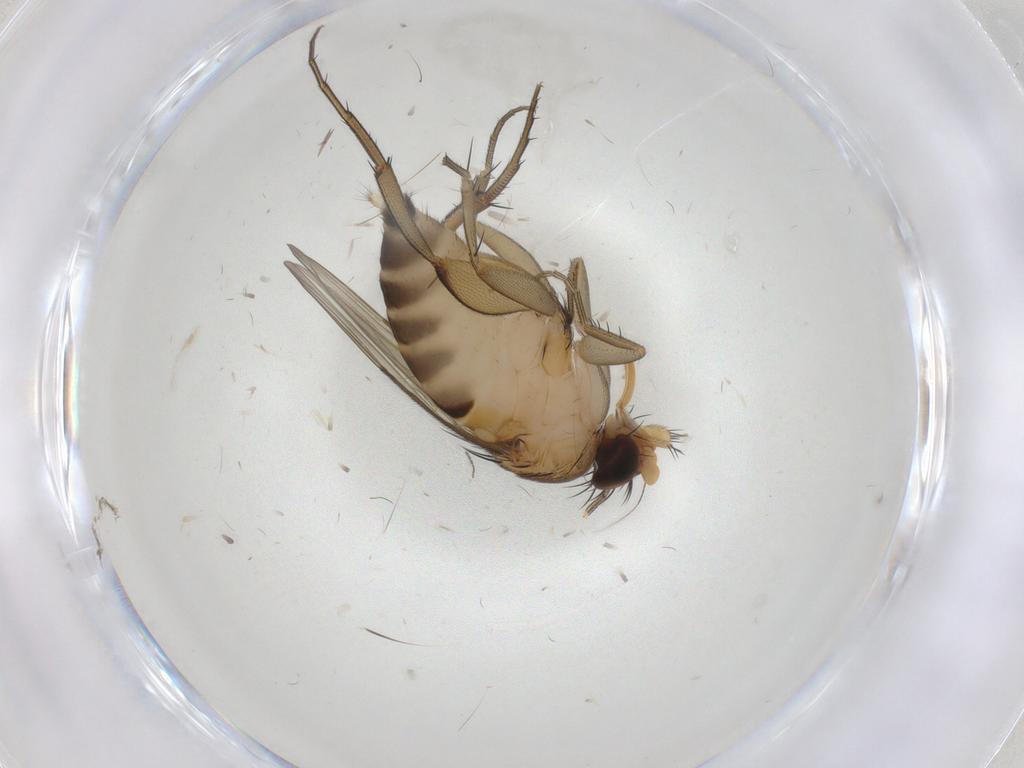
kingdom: Animalia
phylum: Arthropoda
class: Insecta
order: Diptera
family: Phoridae
